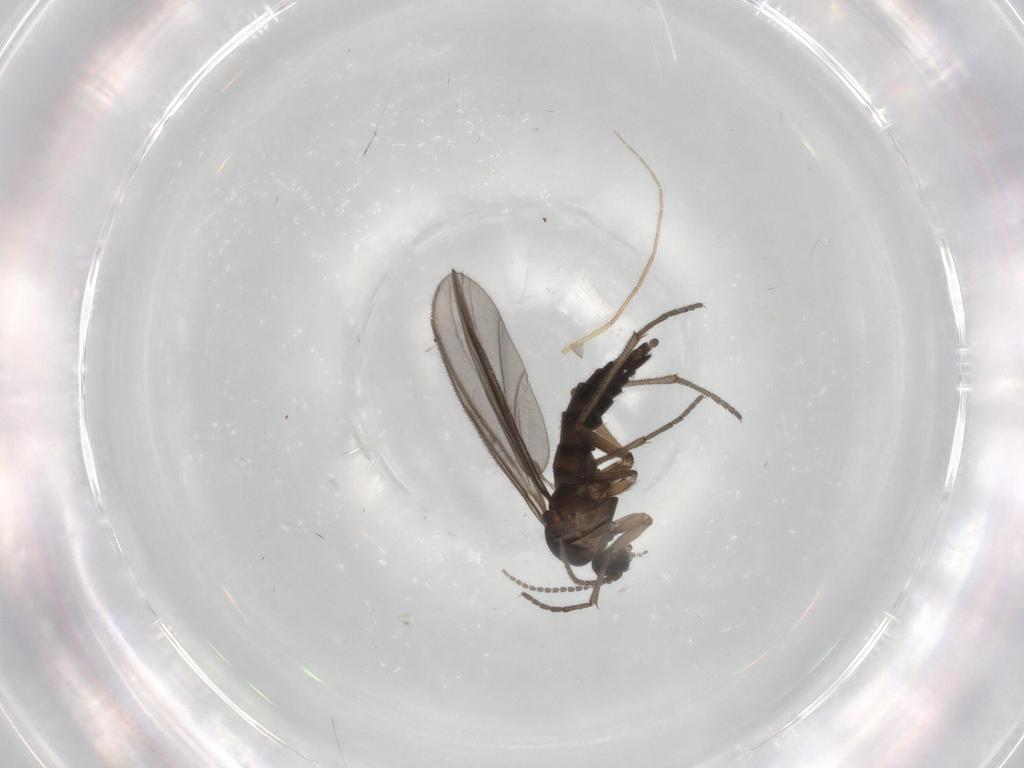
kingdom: Animalia
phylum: Arthropoda
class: Insecta
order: Diptera
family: Sciaridae
